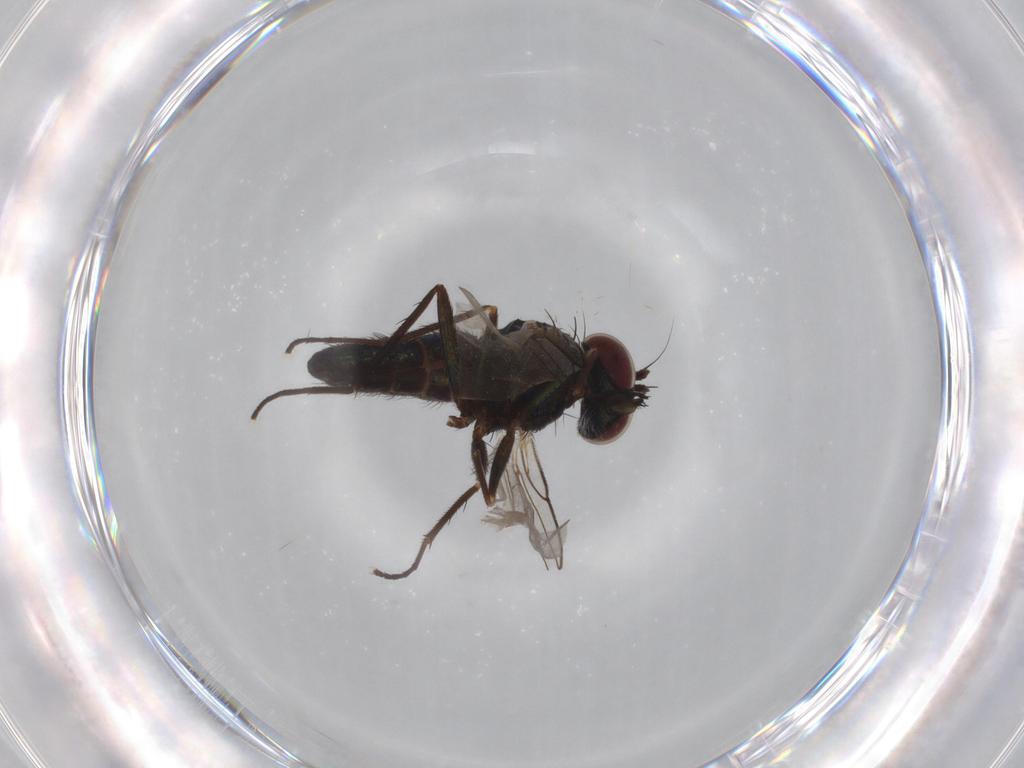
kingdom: Animalia
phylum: Arthropoda
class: Insecta
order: Diptera
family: Dolichopodidae
